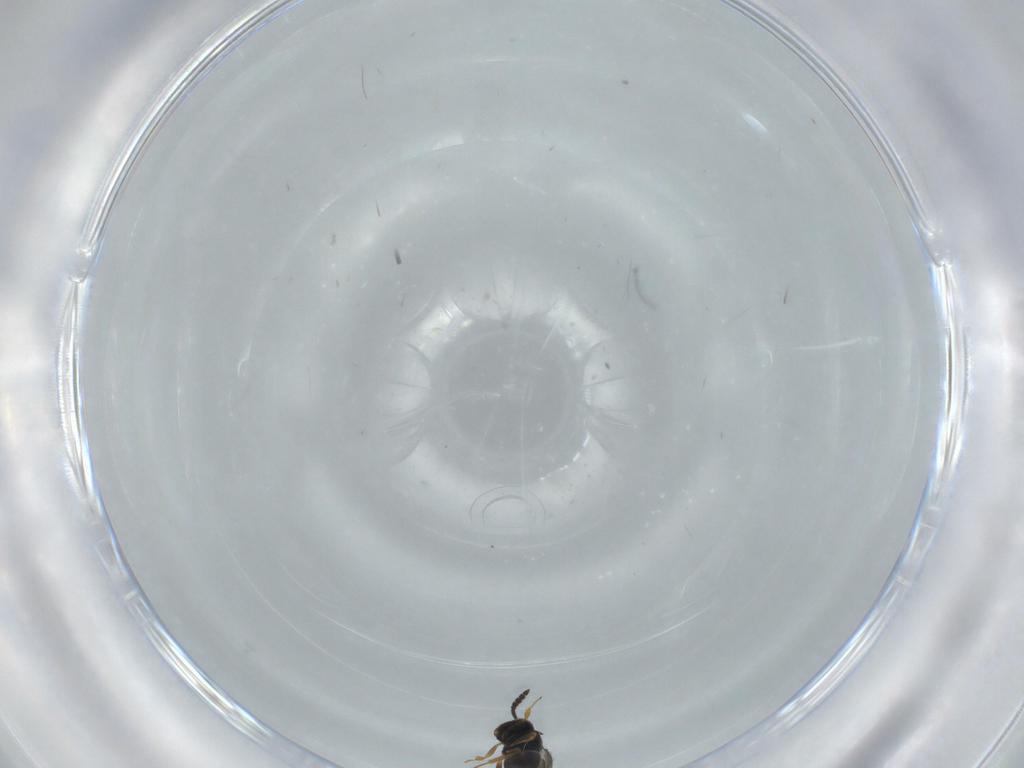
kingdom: Animalia
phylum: Arthropoda
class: Insecta
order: Hymenoptera
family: Scelionidae
